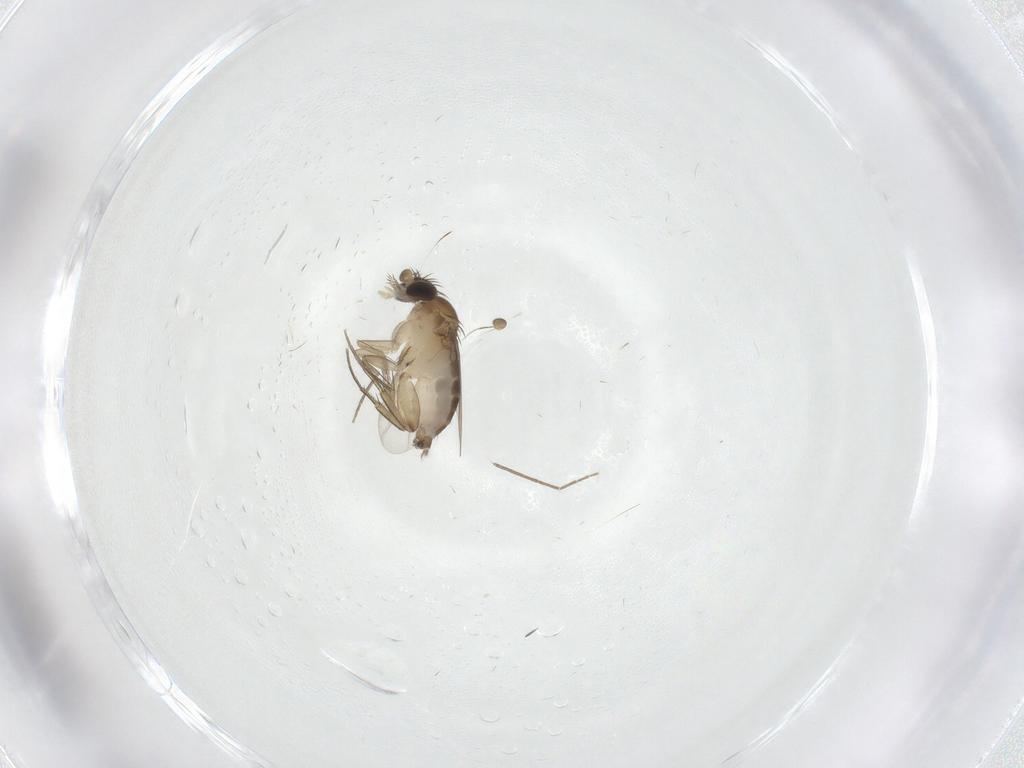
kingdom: Animalia
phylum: Arthropoda
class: Insecta
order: Diptera
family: Phoridae
